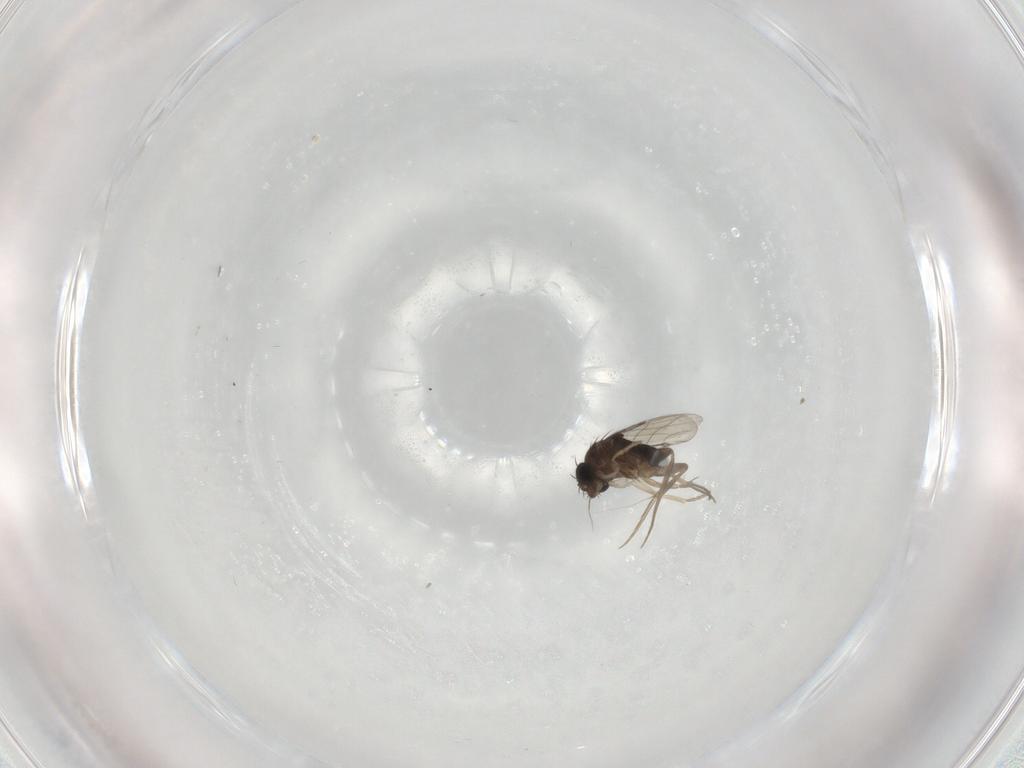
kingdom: Animalia
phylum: Arthropoda
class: Insecta
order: Diptera
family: Phoridae
